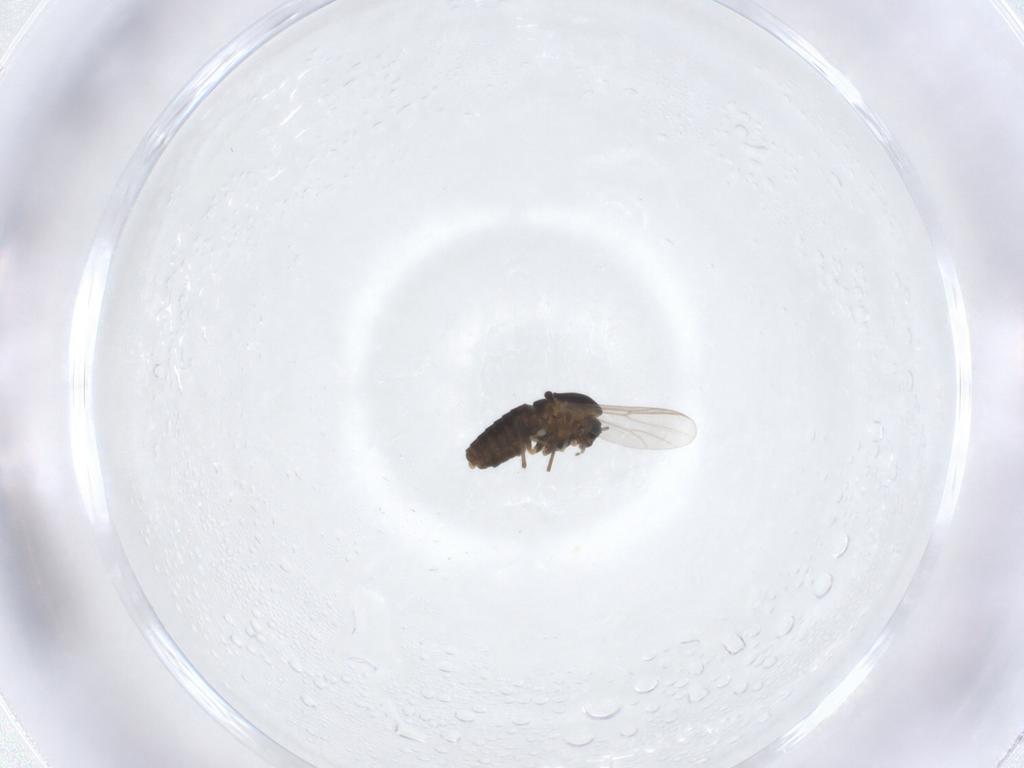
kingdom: Animalia
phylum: Arthropoda
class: Insecta
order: Diptera
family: Chironomidae
